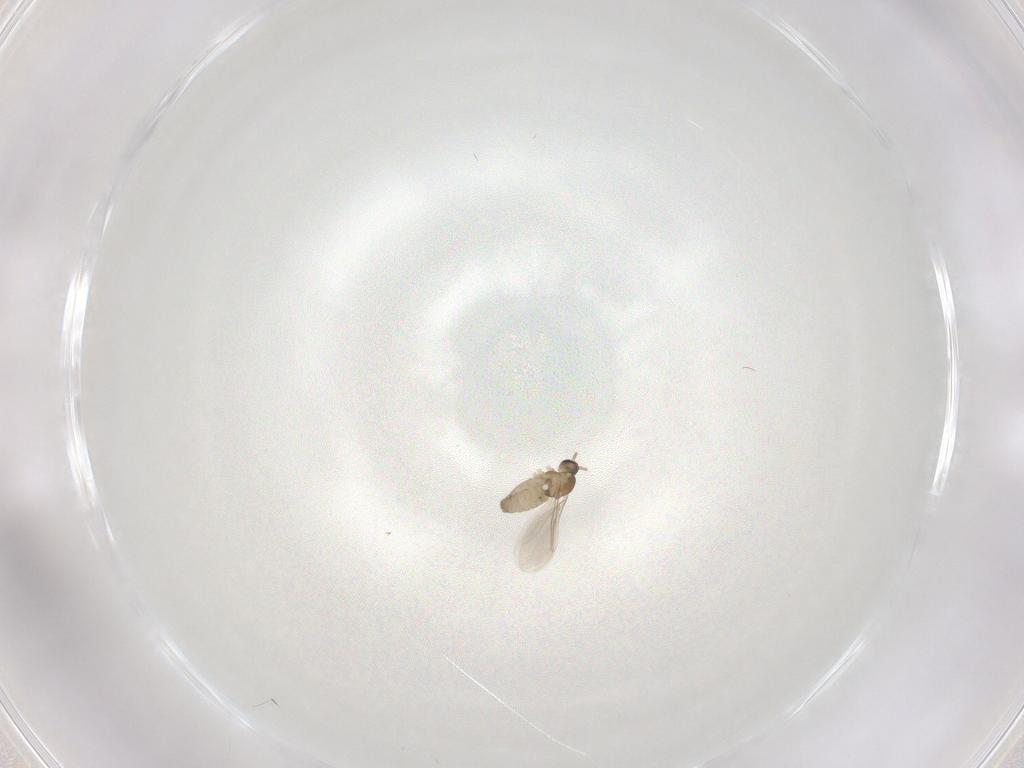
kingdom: Animalia
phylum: Arthropoda
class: Insecta
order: Diptera
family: Cecidomyiidae
